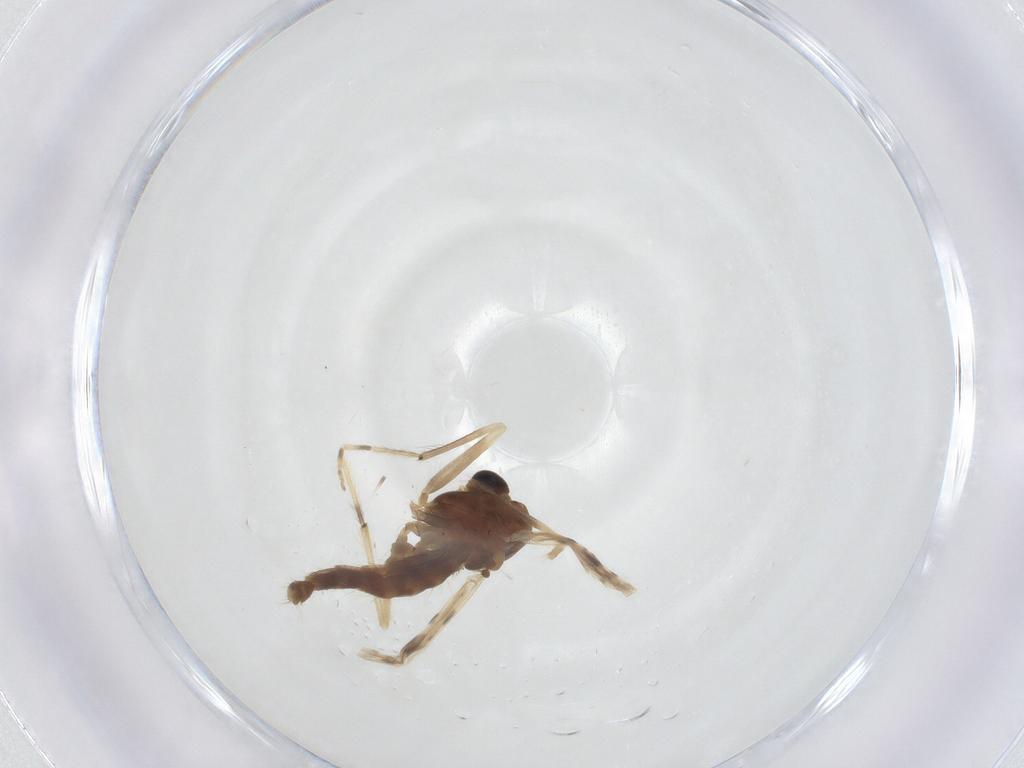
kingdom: Animalia
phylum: Arthropoda
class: Insecta
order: Diptera
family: Chironomidae
